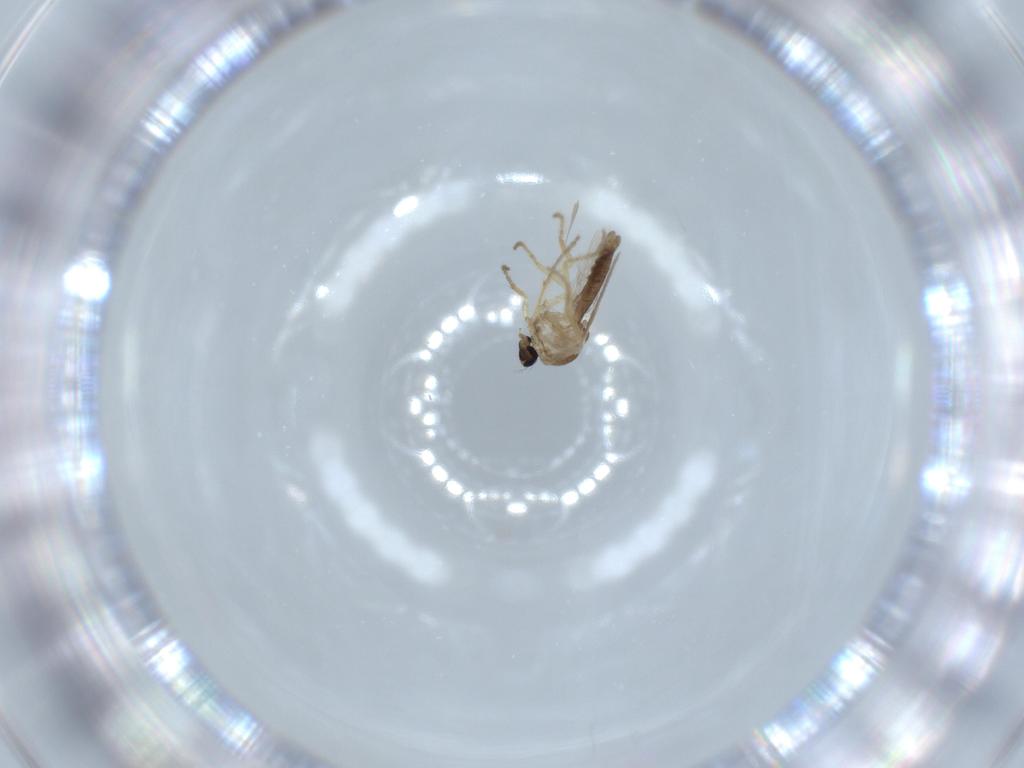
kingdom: Animalia
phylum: Arthropoda
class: Insecta
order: Diptera
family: Ceratopogonidae
